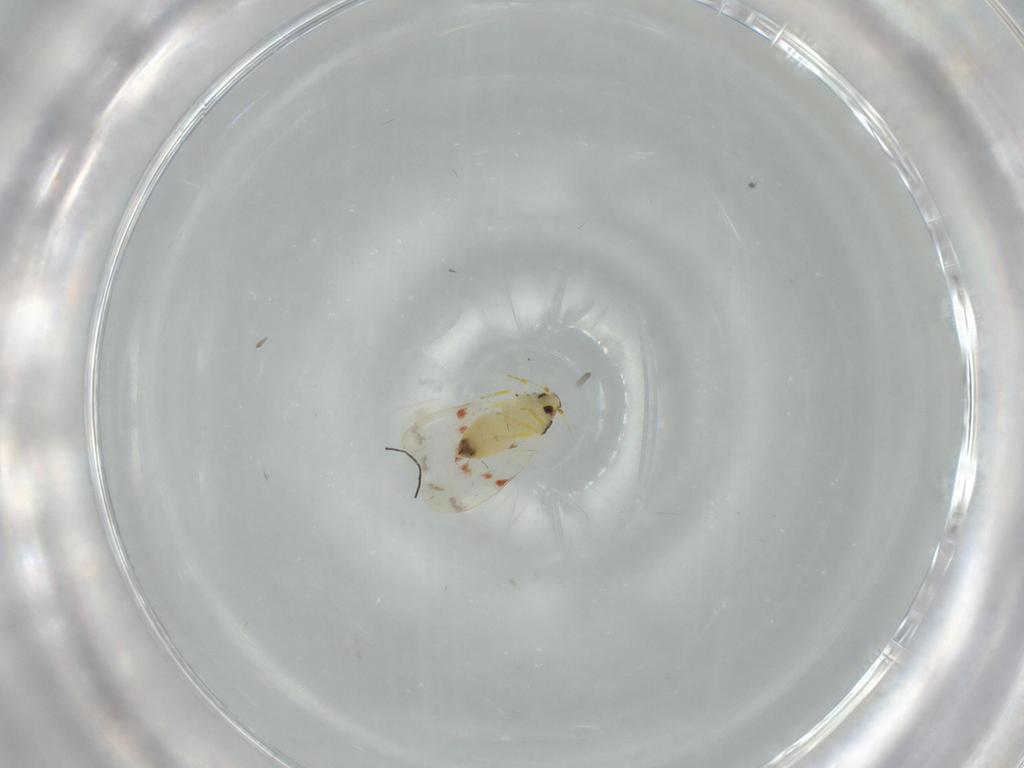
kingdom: Animalia
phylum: Arthropoda
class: Insecta
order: Hemiptera
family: Aleyrodidae
